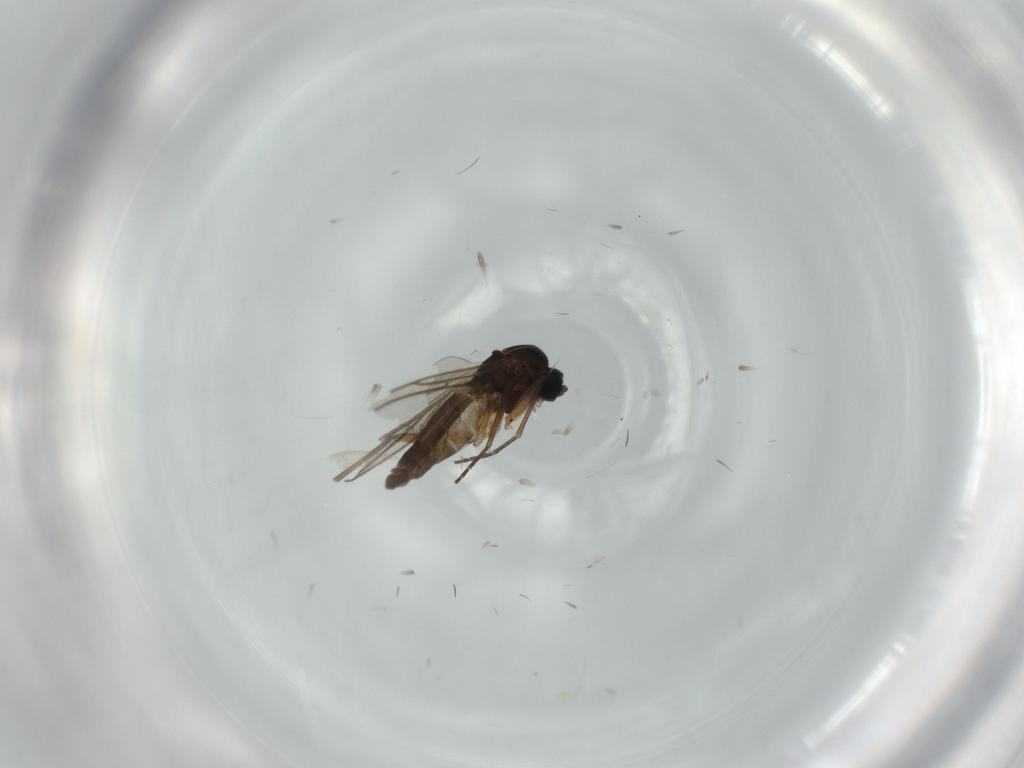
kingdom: Animalia
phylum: Arthropoda
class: Insecta
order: Diptera
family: Sciaridae
